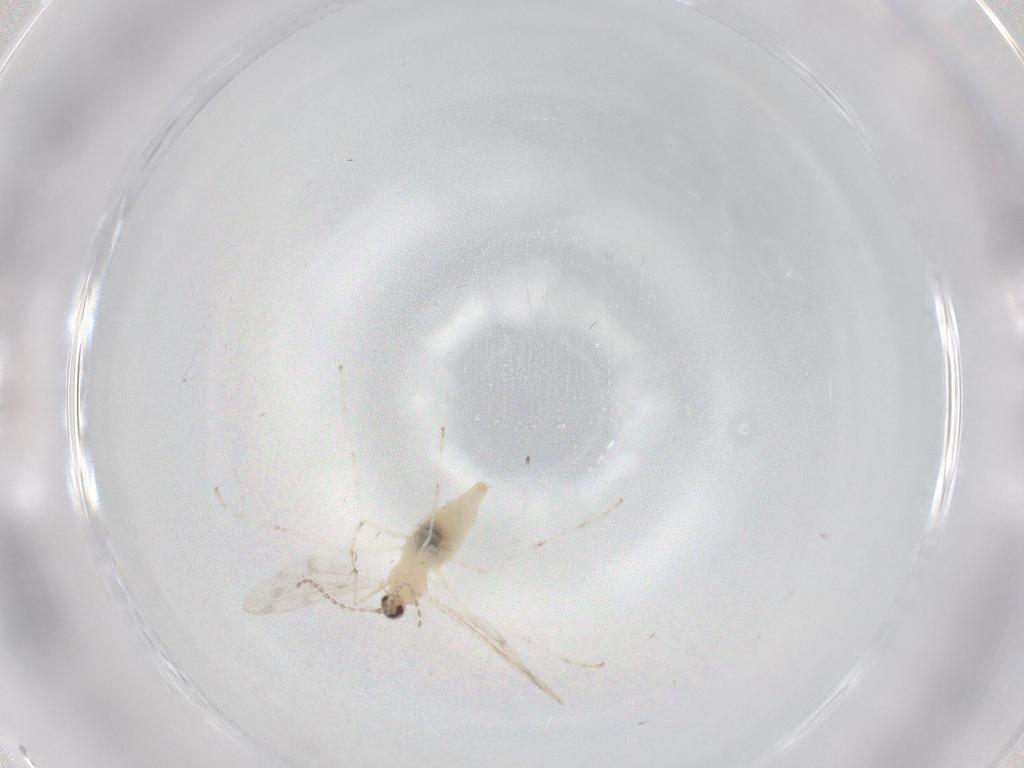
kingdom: Animalia
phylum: Arthropoda
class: Insecta
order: Diptera
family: Cecidomyiidae
